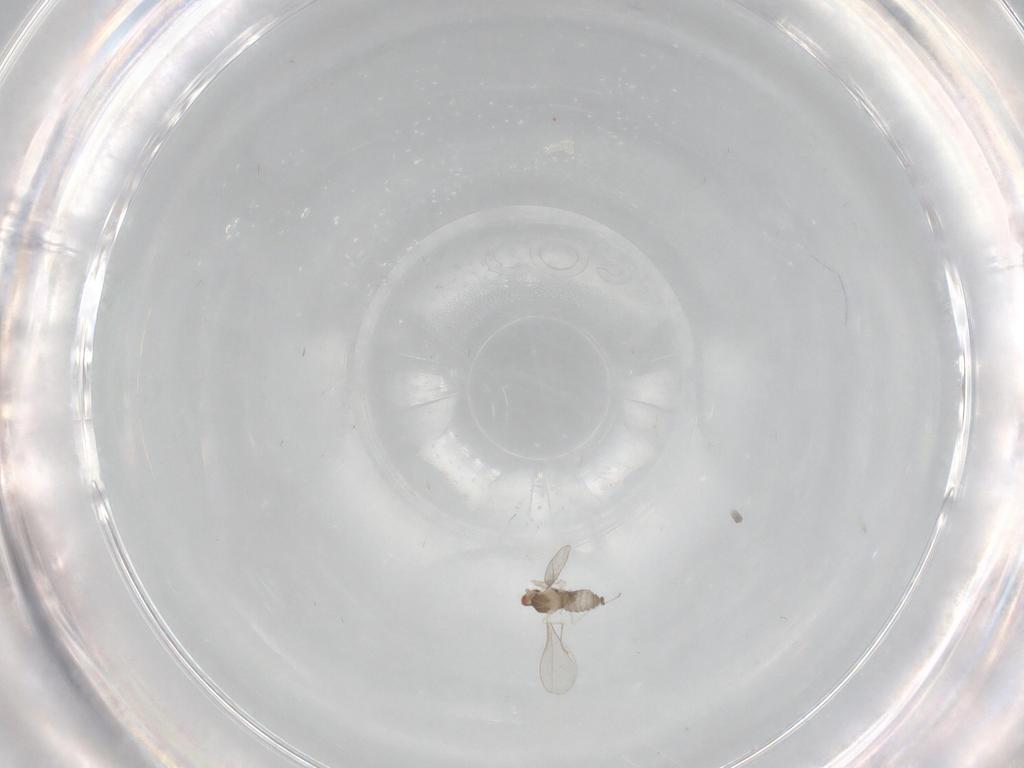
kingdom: Animalia
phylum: Arthropoda
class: Insecta
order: Diptera
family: Cecidomyiidae
